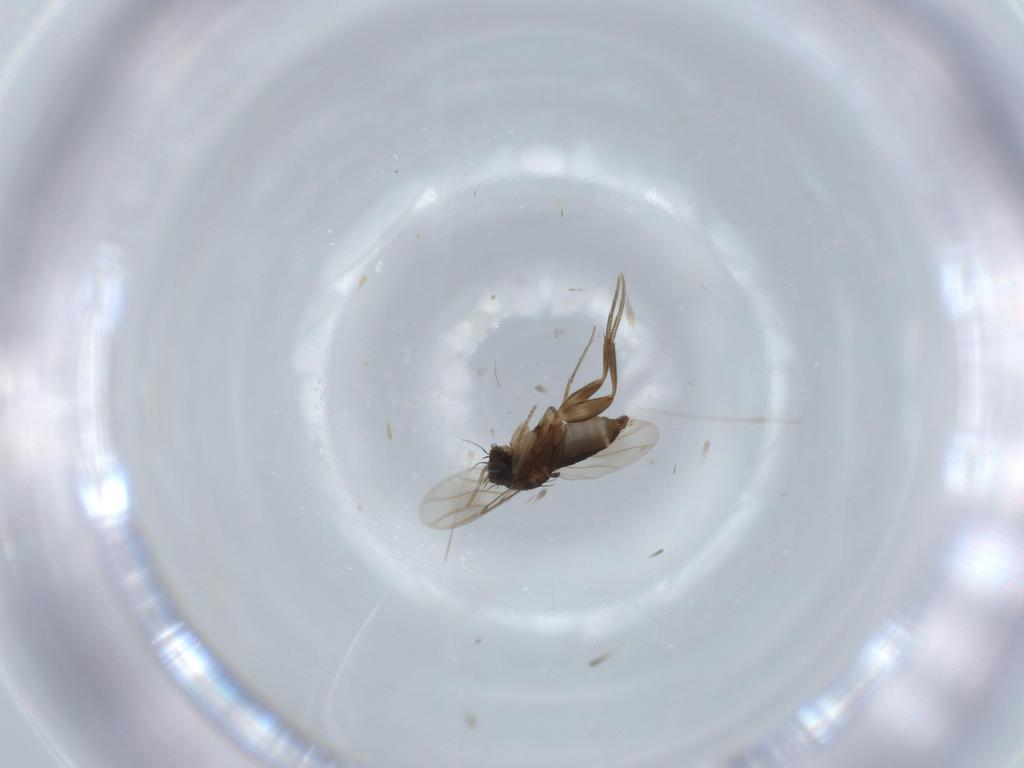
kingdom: Animalia
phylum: Arthropoda
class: Insecta
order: Diptera
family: Phoridae
